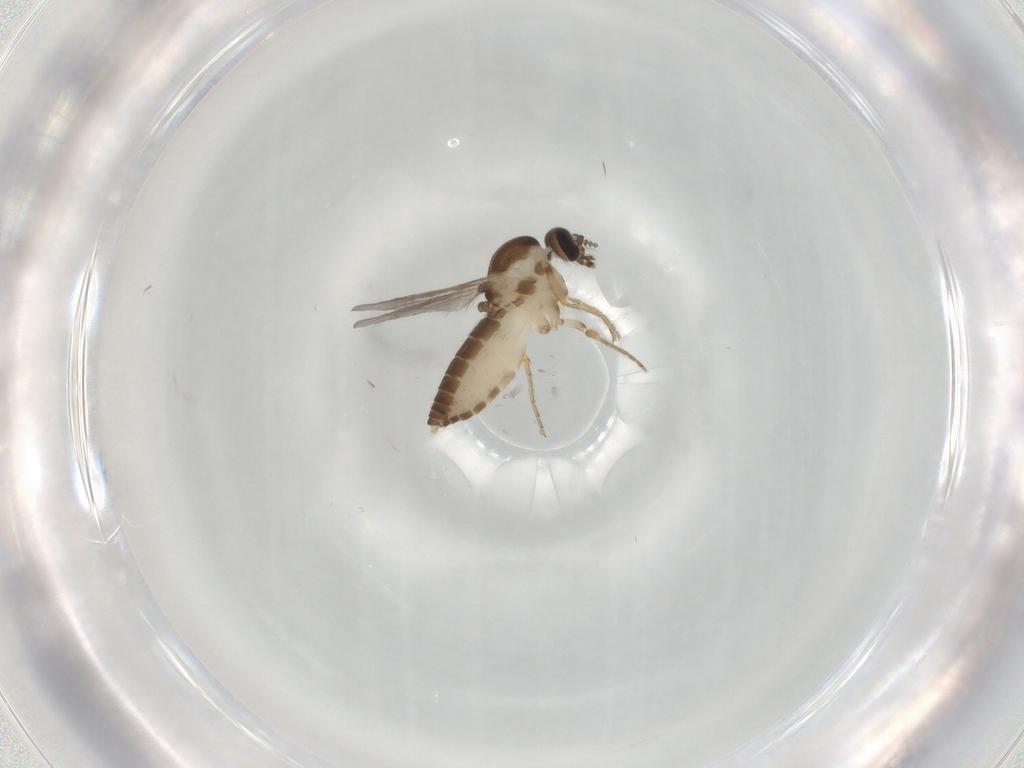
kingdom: Animalia
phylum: Arthropoda
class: Insecta
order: Diptera
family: Ceratopogonidae
